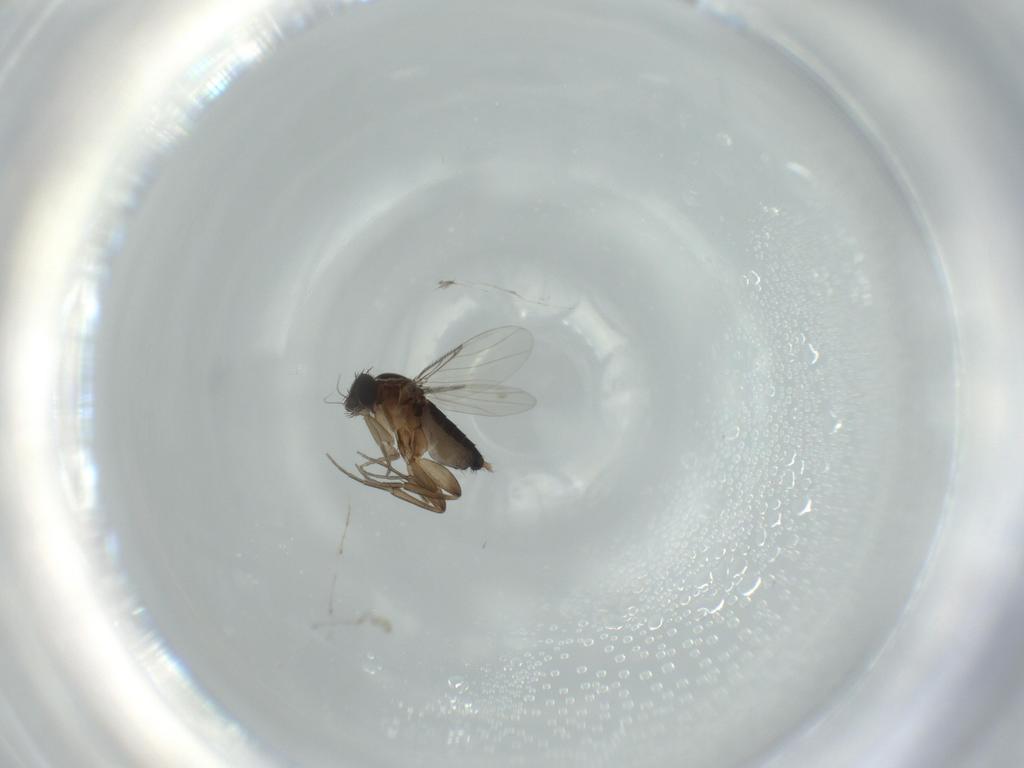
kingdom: Animalia
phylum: Arthropoda
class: Insecta
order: Diptera
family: Phoridae
